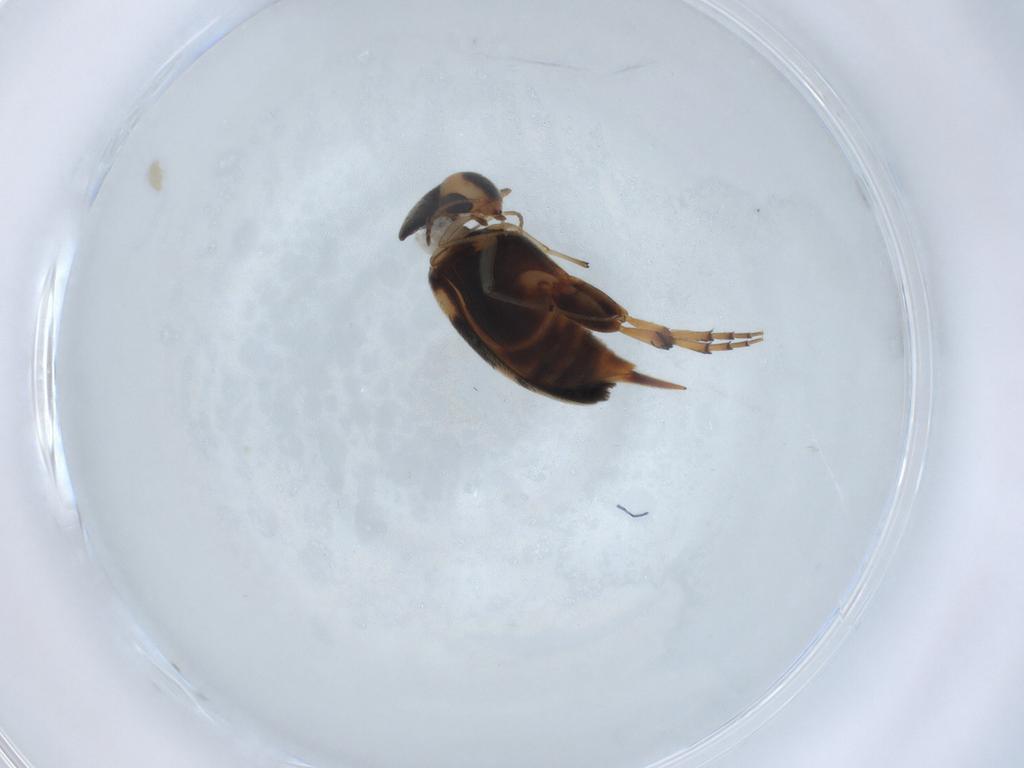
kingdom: Animalia
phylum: Arthropoda
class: Insecta
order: Coleoptera
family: Mordellidae
